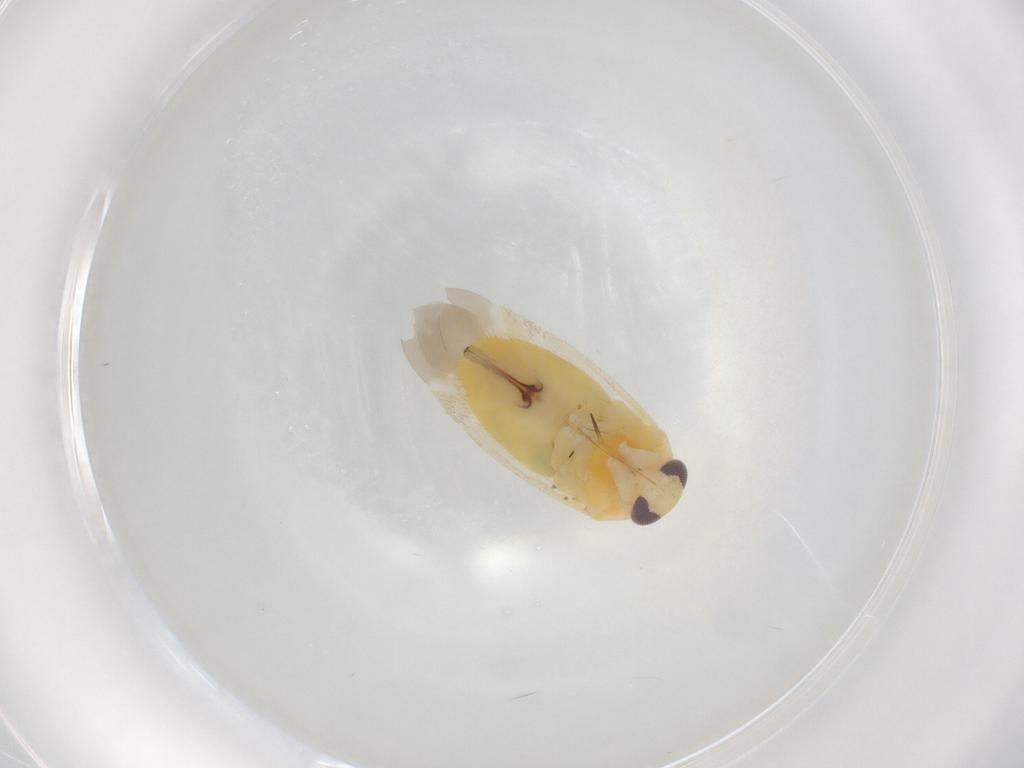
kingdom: Animalia
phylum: Arthropoda
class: Insecta
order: Hemiptera
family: Miridae
